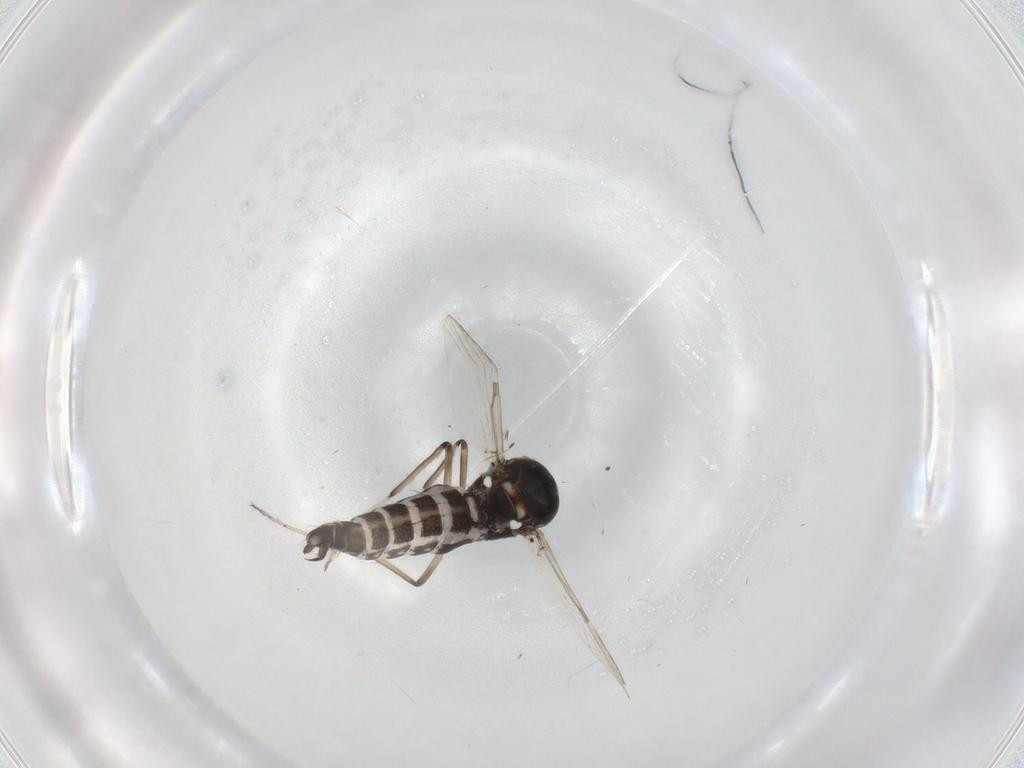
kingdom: Animalia
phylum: Arthropoda
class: Insecta
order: Diptera
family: Ceratopogonidae
